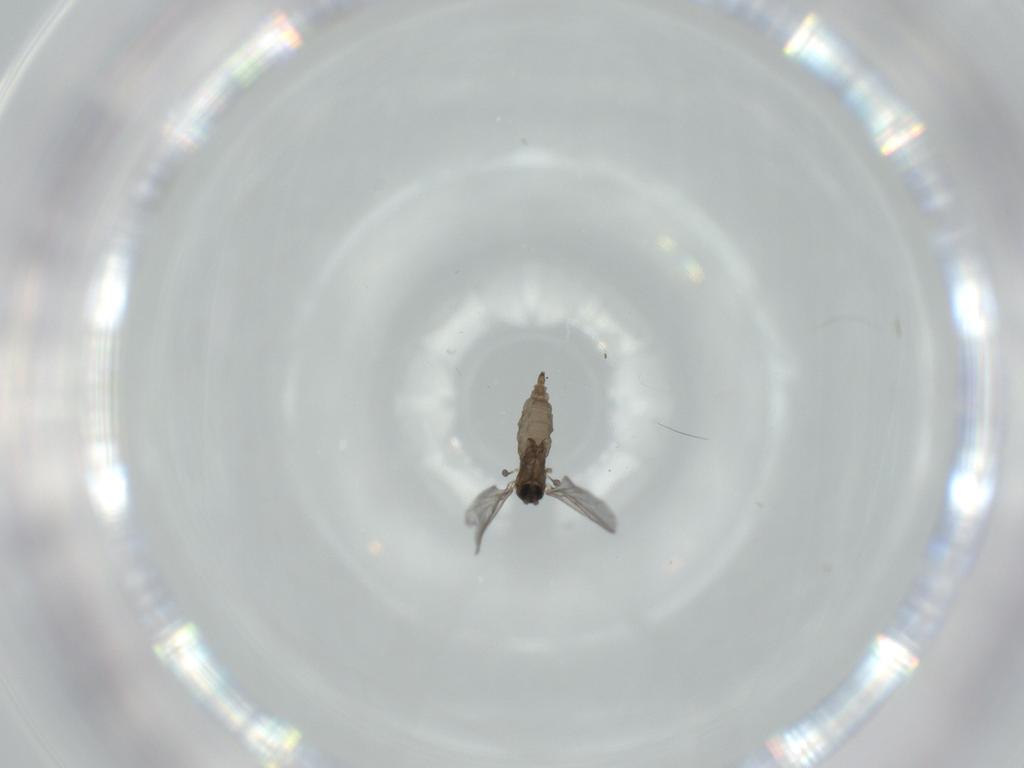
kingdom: Animalia
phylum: Arthropoda
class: Insecta
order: Diptera
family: Sciaridae
